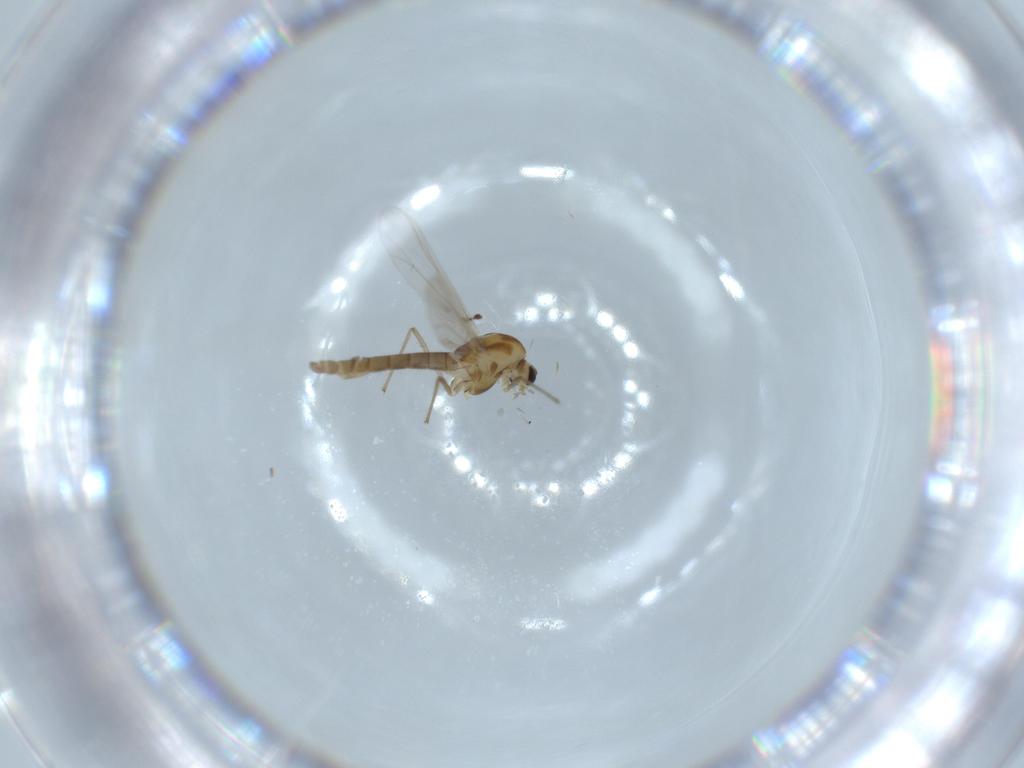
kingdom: Animalia
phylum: Arthropoda
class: Insecta
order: Diptera
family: Chironomidae
